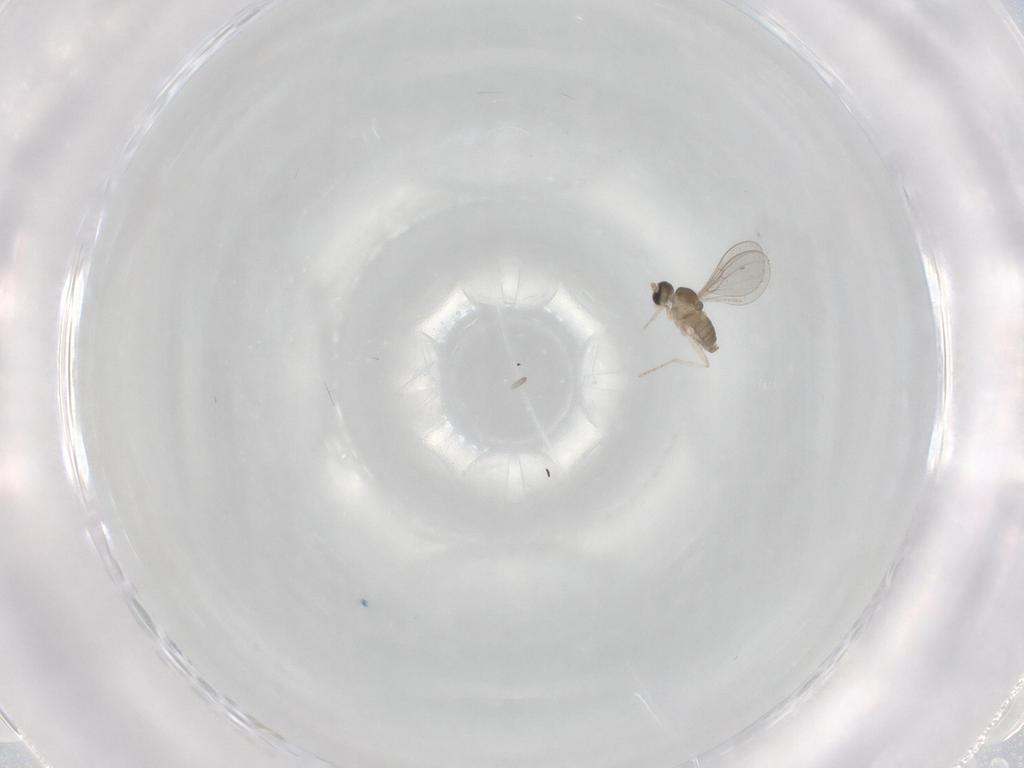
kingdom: Animalia
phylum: Arthropoda
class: Insecta
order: Diptera
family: Cecidomyiidae
